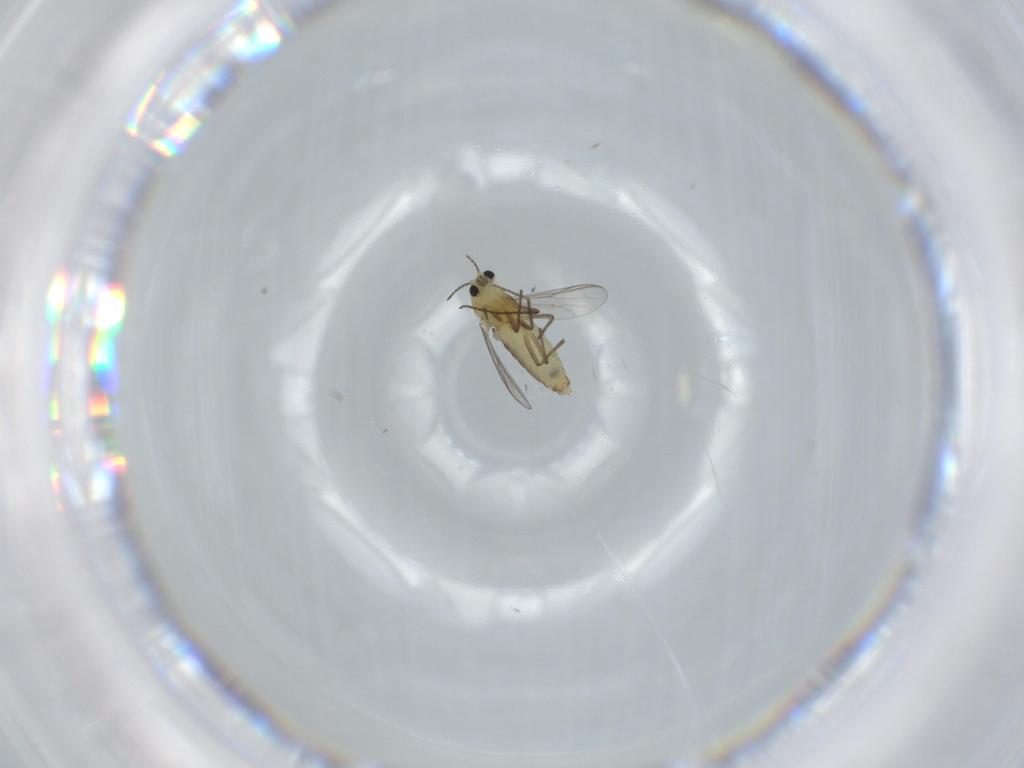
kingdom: Animalia
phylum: Arthropoda
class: Insecta
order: Diptera
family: Chironomidae
